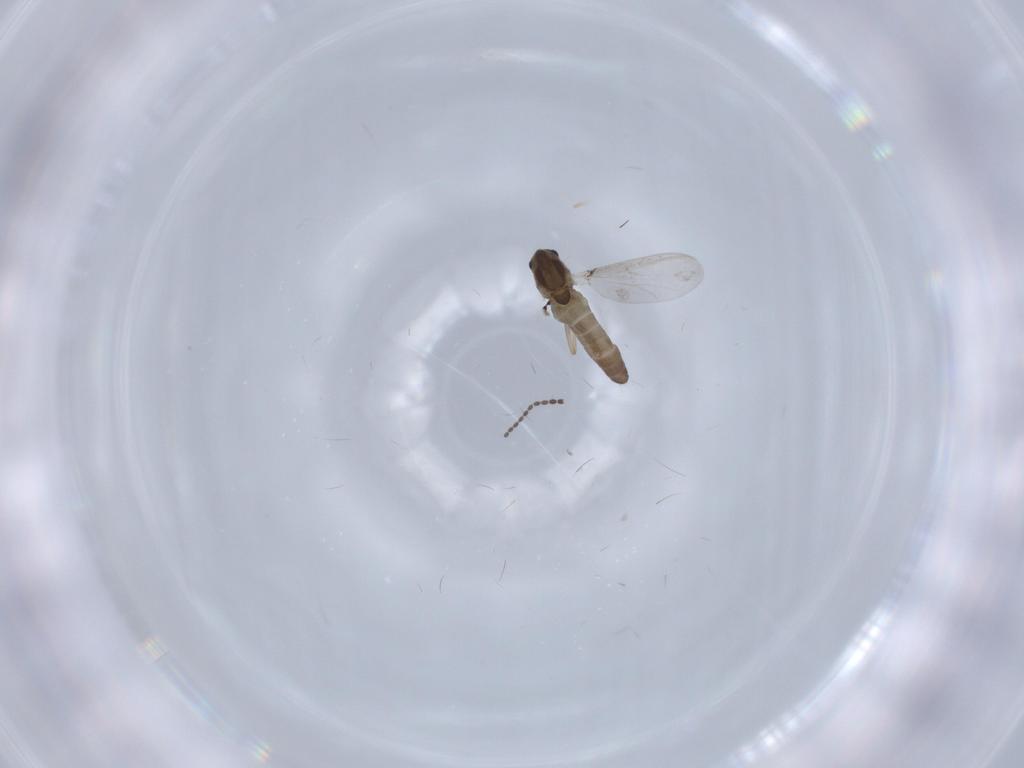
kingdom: Animalia
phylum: Arthropoda
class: Insecta
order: Diptera
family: Chironomidae
